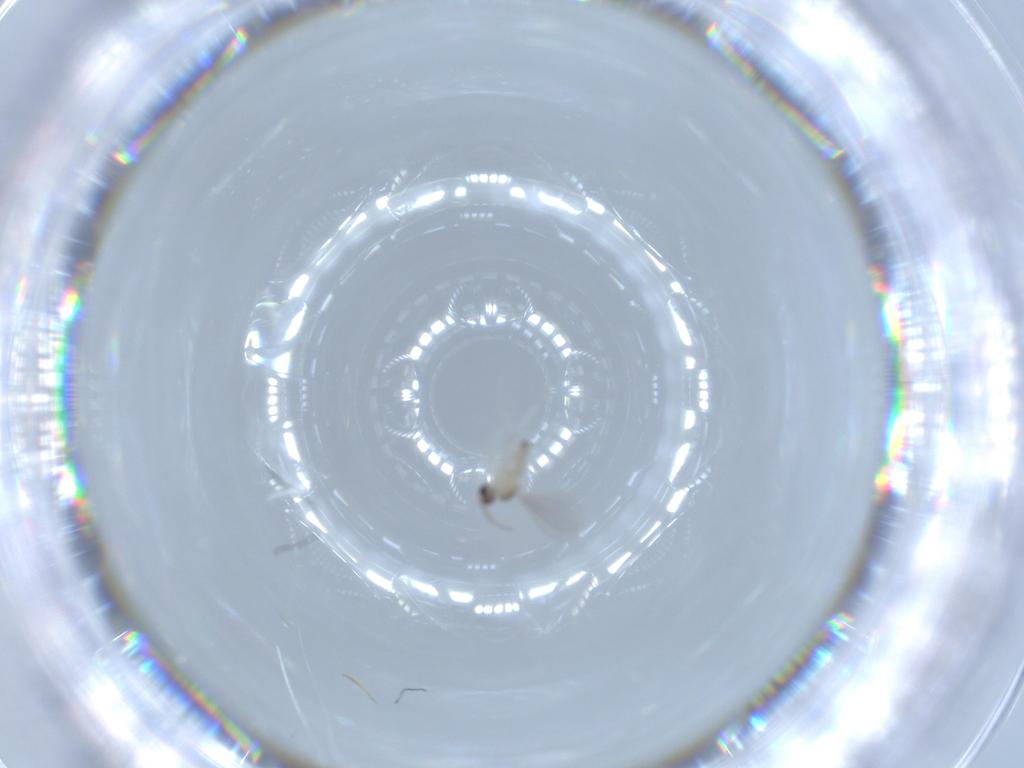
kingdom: Animalia
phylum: Arthropoda
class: Insecta
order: Diptera
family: Cecidomyiidae
